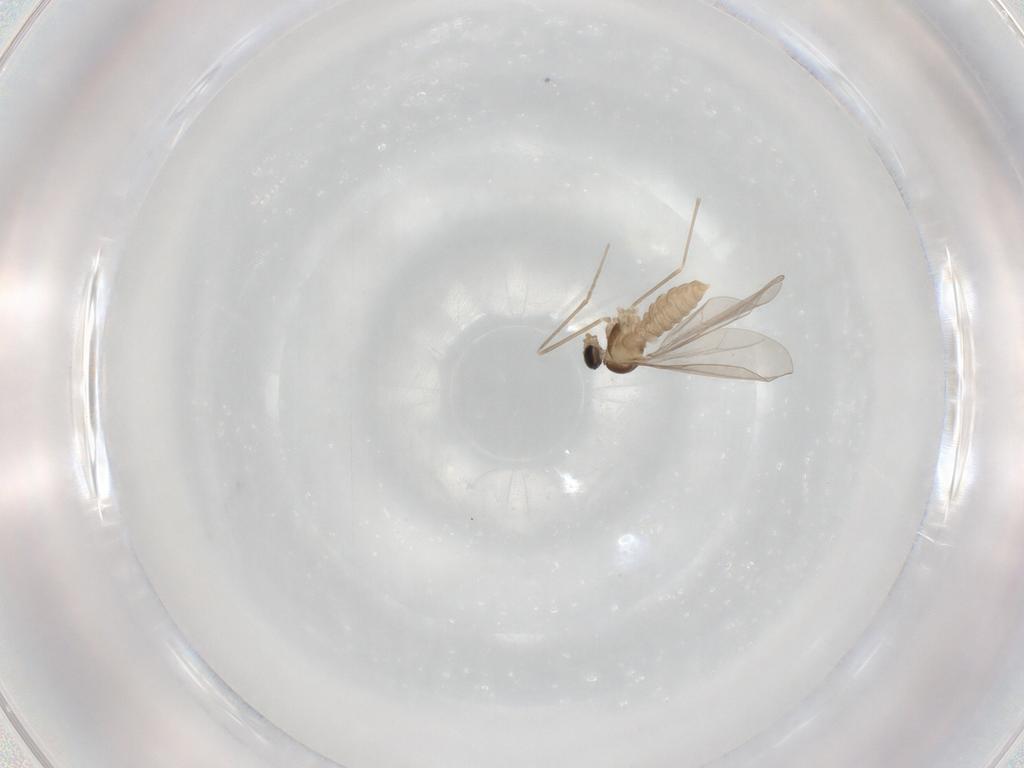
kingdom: Animalia
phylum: Arthropoda
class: Insecta
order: Diptera
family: Cecidomyiidae
